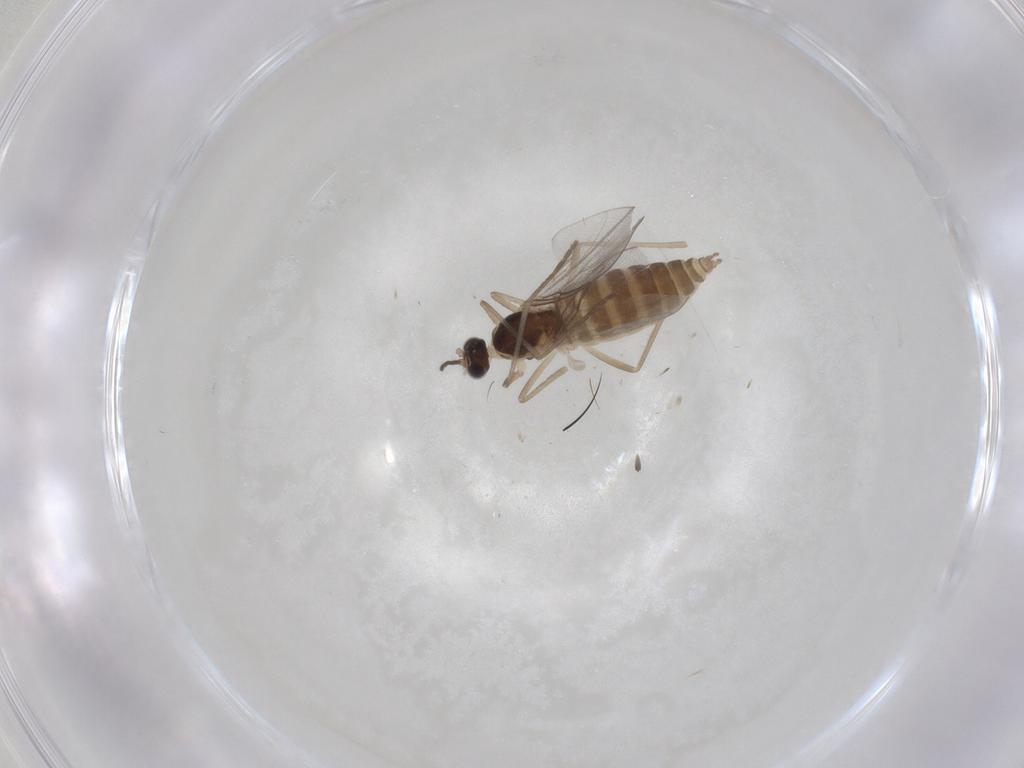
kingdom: Animalia
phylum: Arthropoda
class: Insecta
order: Diptera
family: Cecidomyiidae
